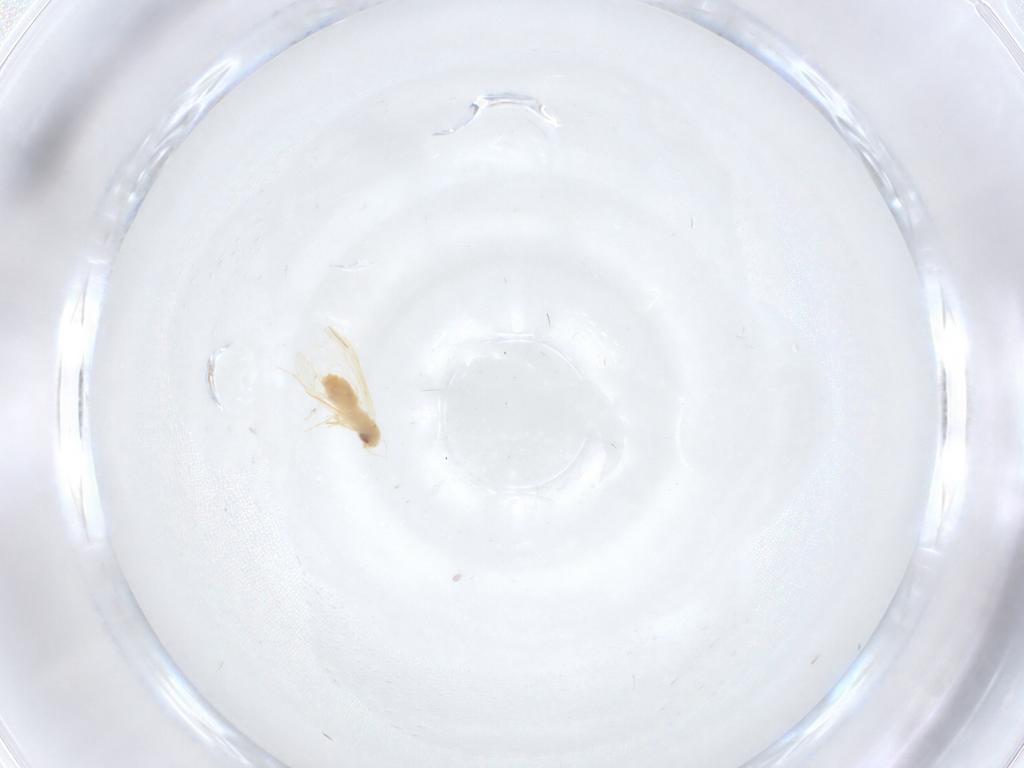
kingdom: Animalia
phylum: Arthropoda
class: Insecta
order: Hemiptera
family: Aleyrodidae
